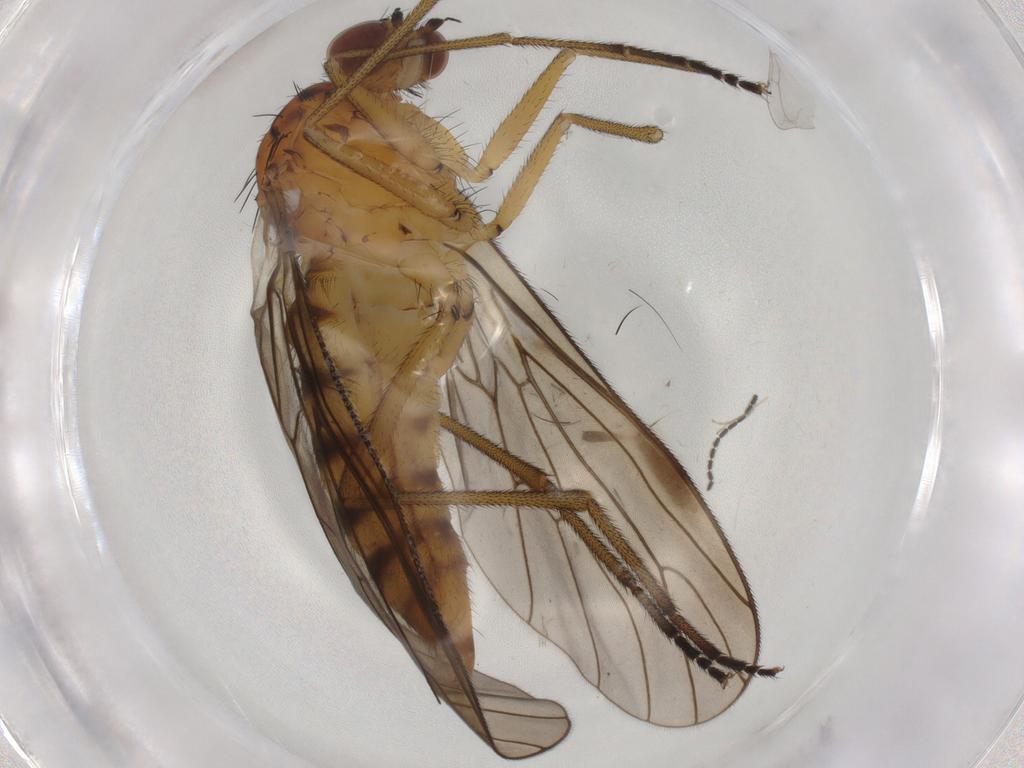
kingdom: Animalia
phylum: Arthropoda
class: Insecta
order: Diptera
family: Brachystomatidae
